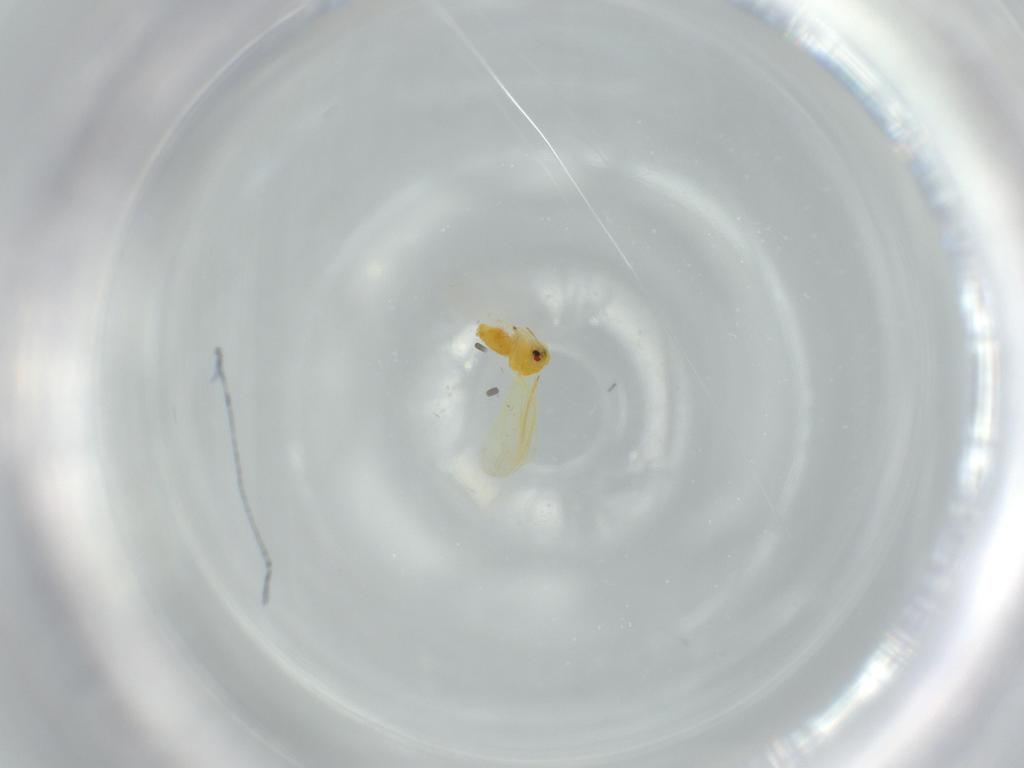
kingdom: Animalia
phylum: Arthropoda
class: Insecta
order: Hemiptera
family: Aleyrodidae
